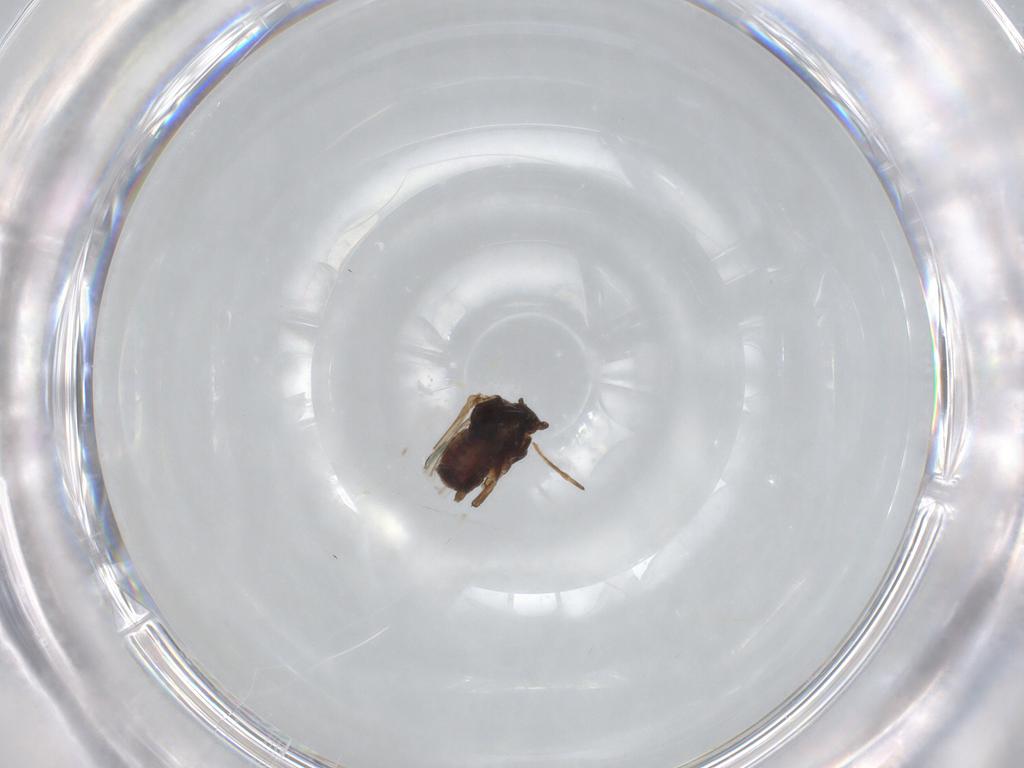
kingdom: Animalia
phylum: Arthropoda
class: Insecta
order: Hemiptera
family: Aphididae
